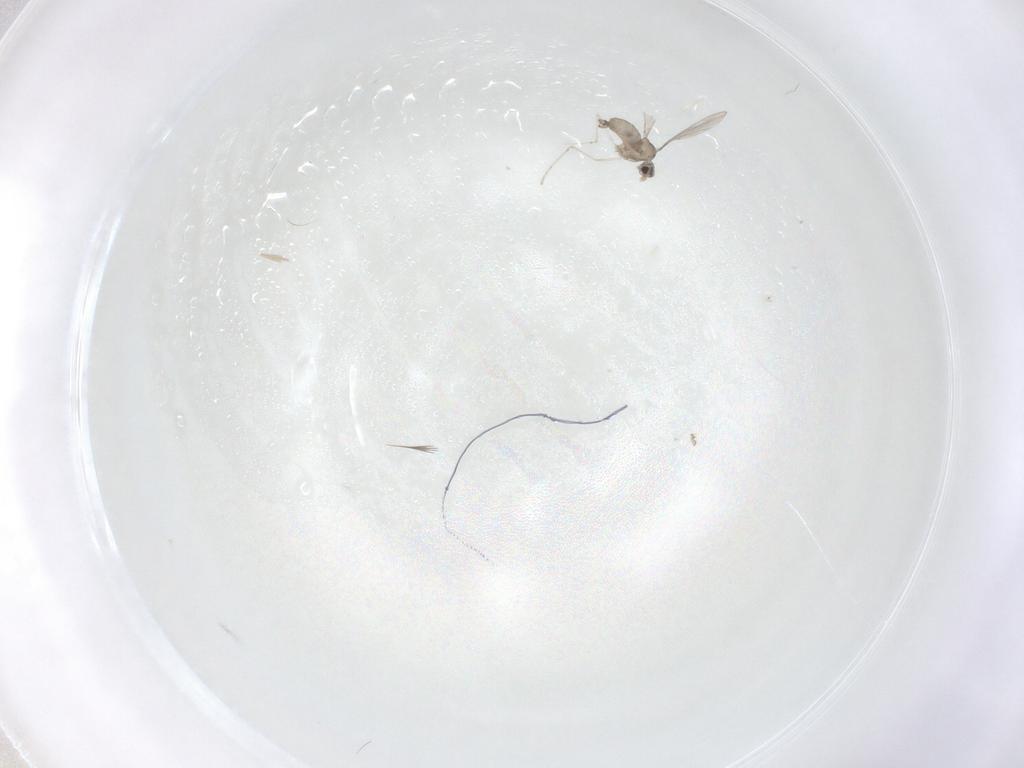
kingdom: Animalia
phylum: Arthropoda
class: Insecta
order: Diptera
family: Cecidomyiidae
